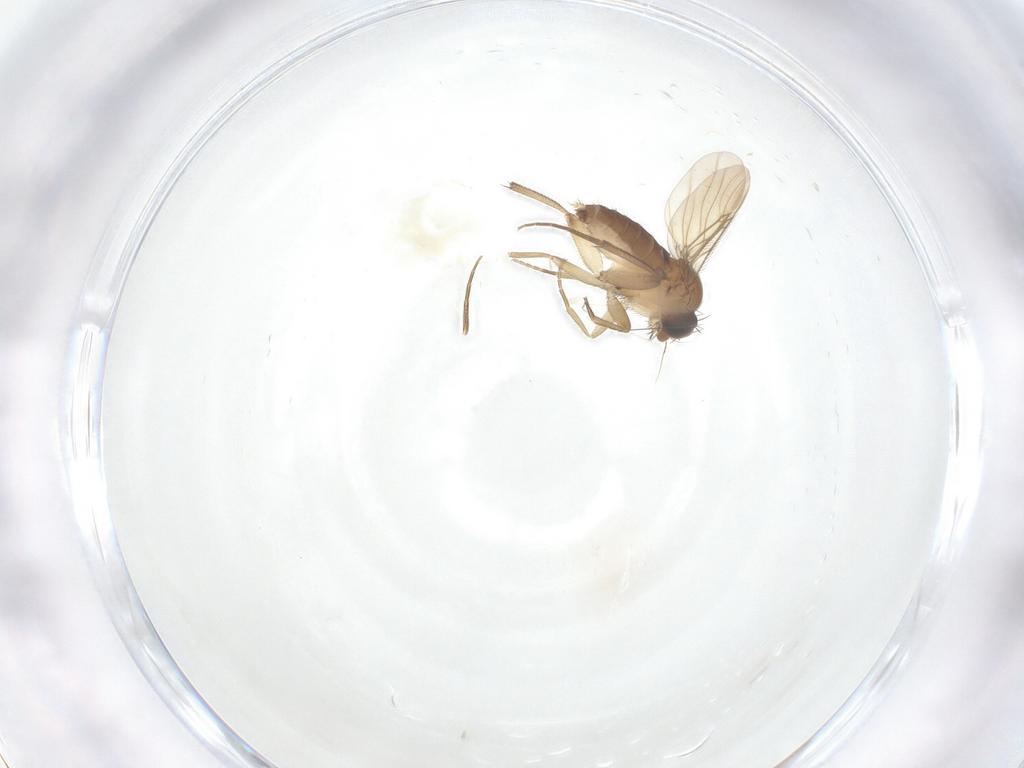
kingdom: Animalia
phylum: Arthropoda
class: Insecta
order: Diptera
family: Phoridae
